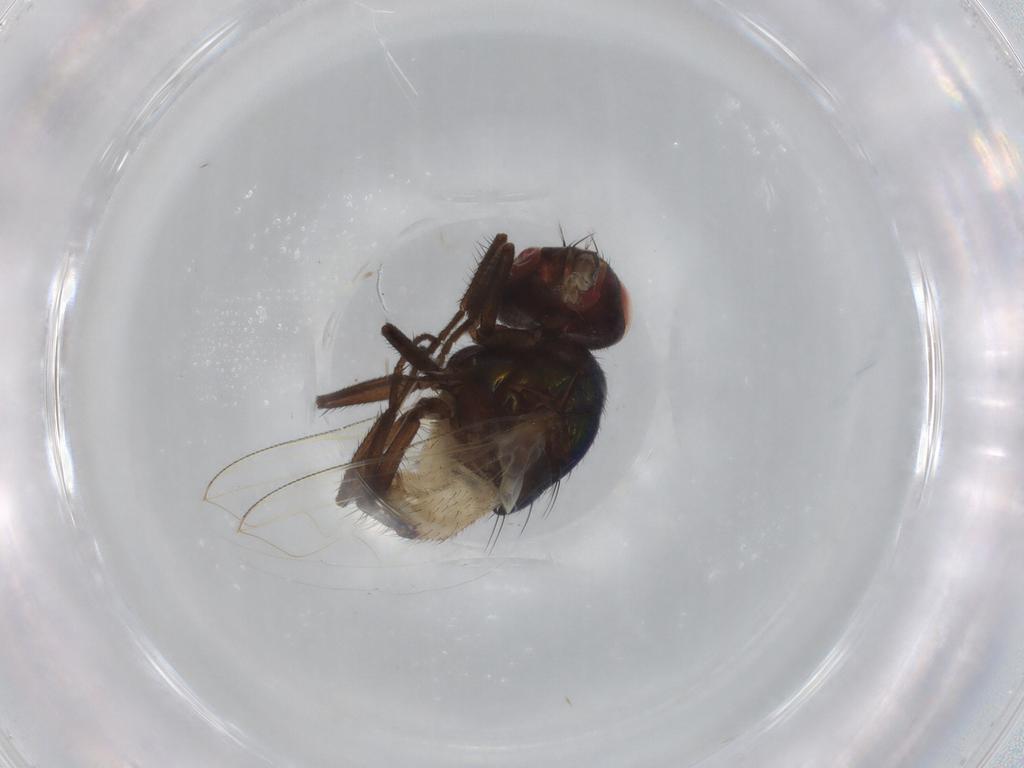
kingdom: Animalia
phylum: Arthropoda
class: Insecta
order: Diptera
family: Muscidae
